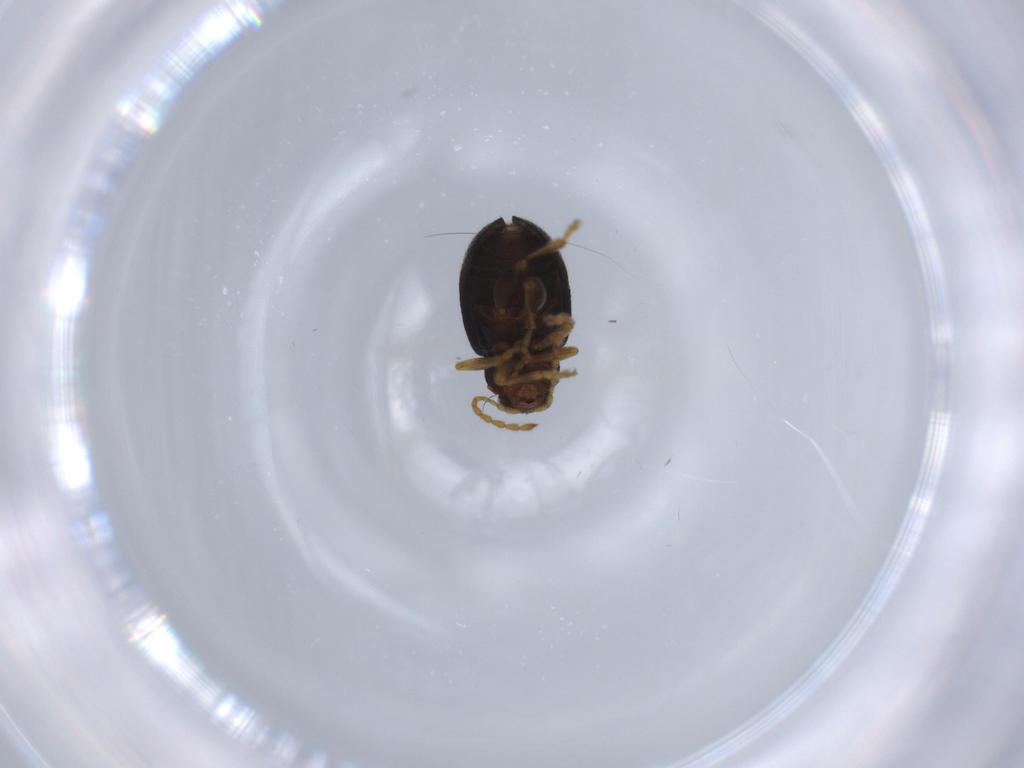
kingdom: Animalia
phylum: Arthropoda
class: Insecta
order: Coleoptera
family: Chrysomelidae
